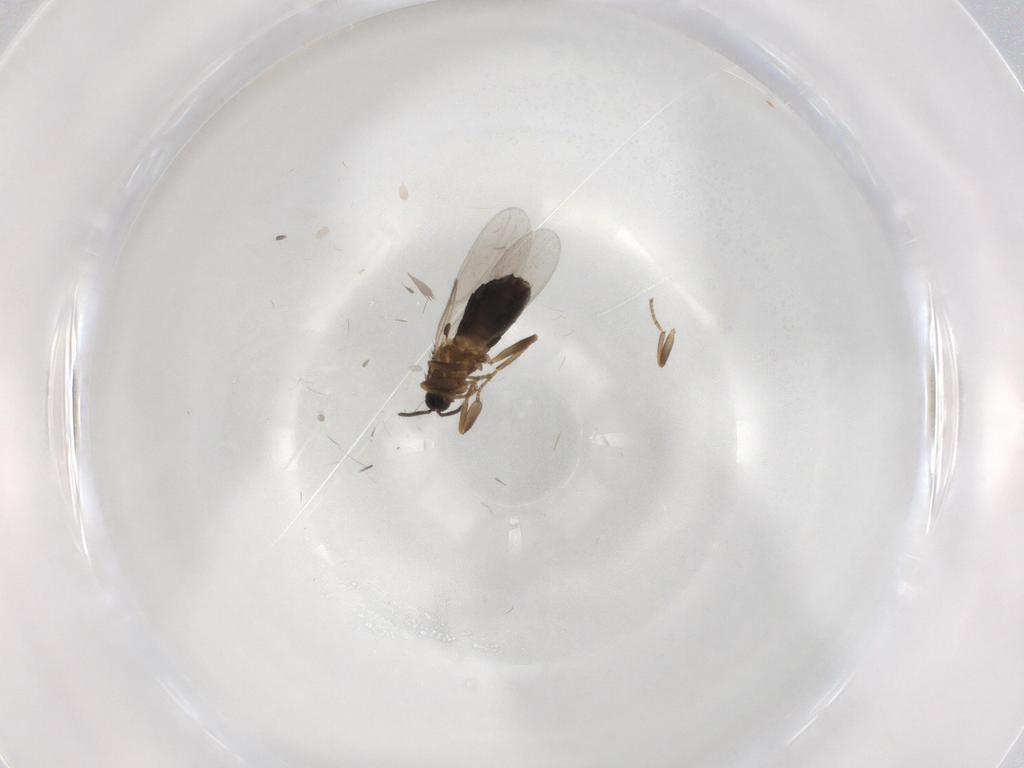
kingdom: Animalia
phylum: Arthropoda
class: Insecta
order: Diptera
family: Scatopsidae
